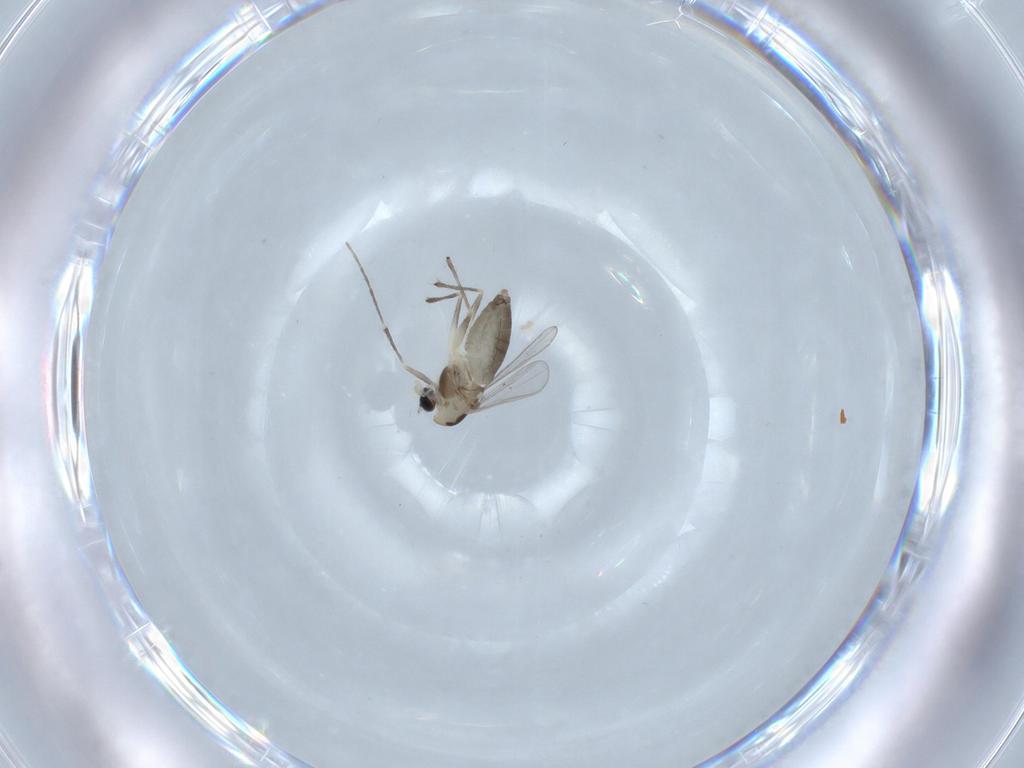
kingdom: Animalia
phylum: Arthropoda
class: Insecta
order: Diptera
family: Chironomidae
